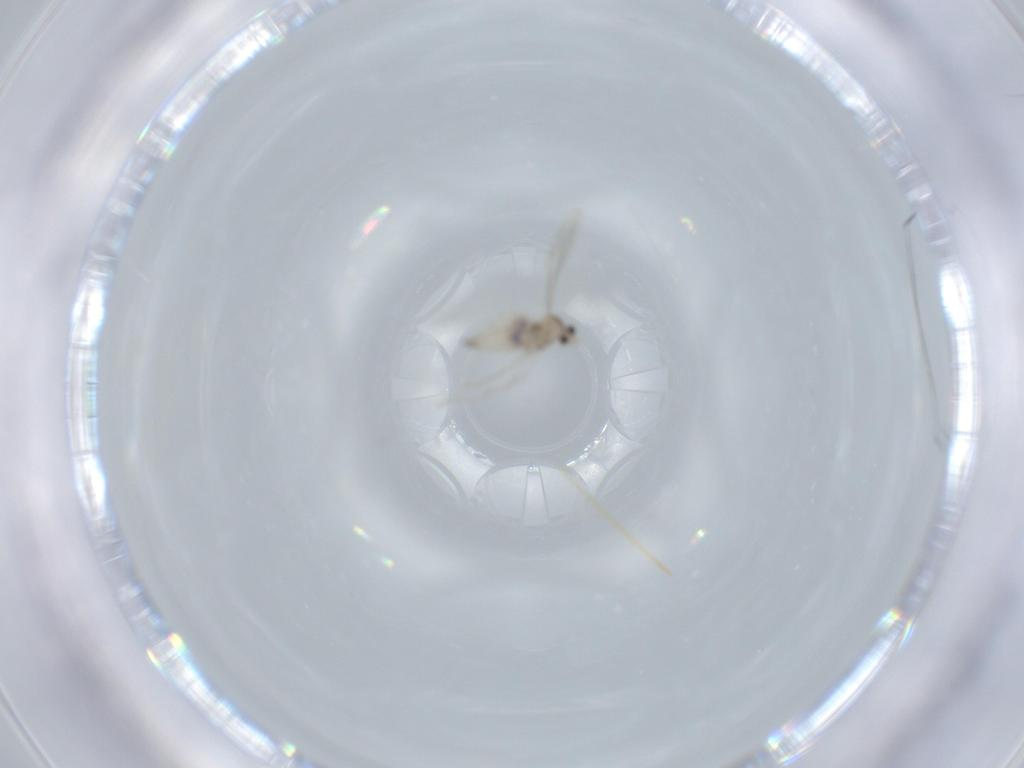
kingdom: Animalia
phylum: Arthropoda
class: Insecta
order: Diptera
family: Cecidomyiidae
